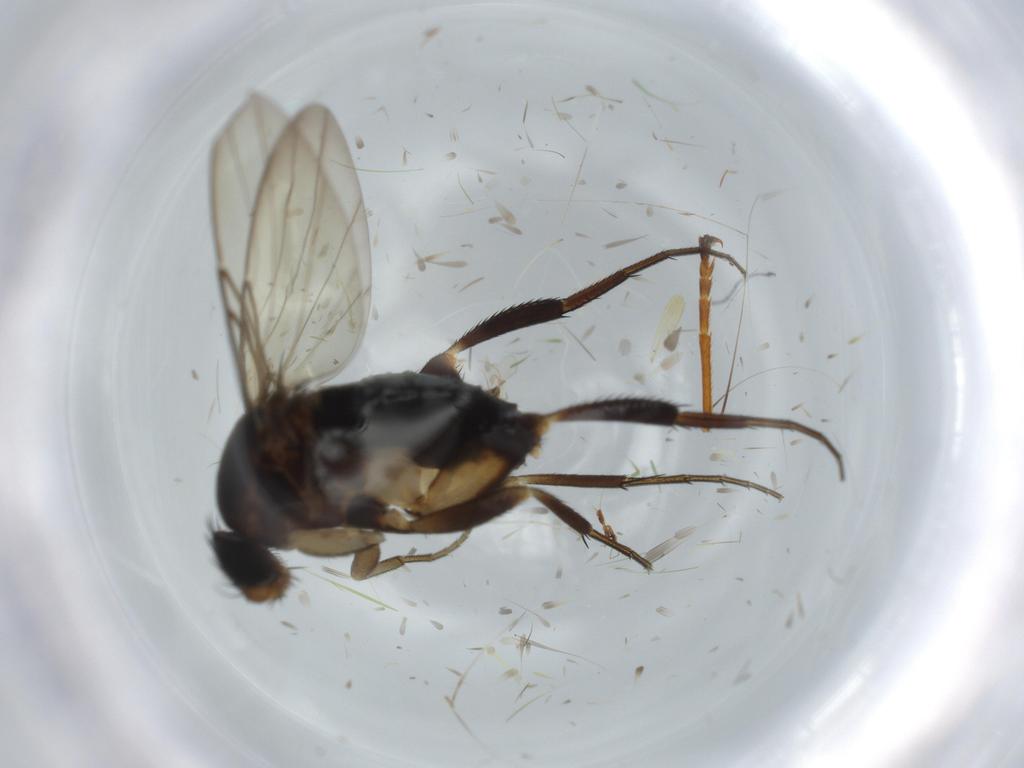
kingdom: Animalia
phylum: Arthropoda
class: Insecta
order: Diptera
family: Phoridae
